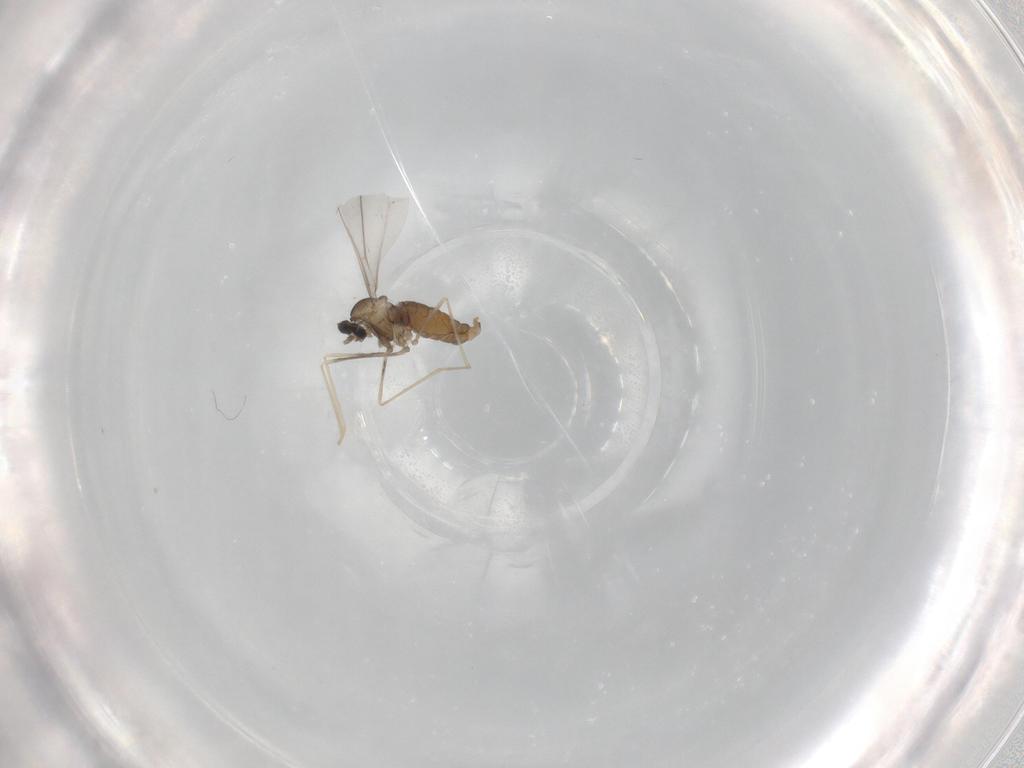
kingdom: Animalia
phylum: Arthropoda
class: Insecta
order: Diptera
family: Cecidomyiidae
